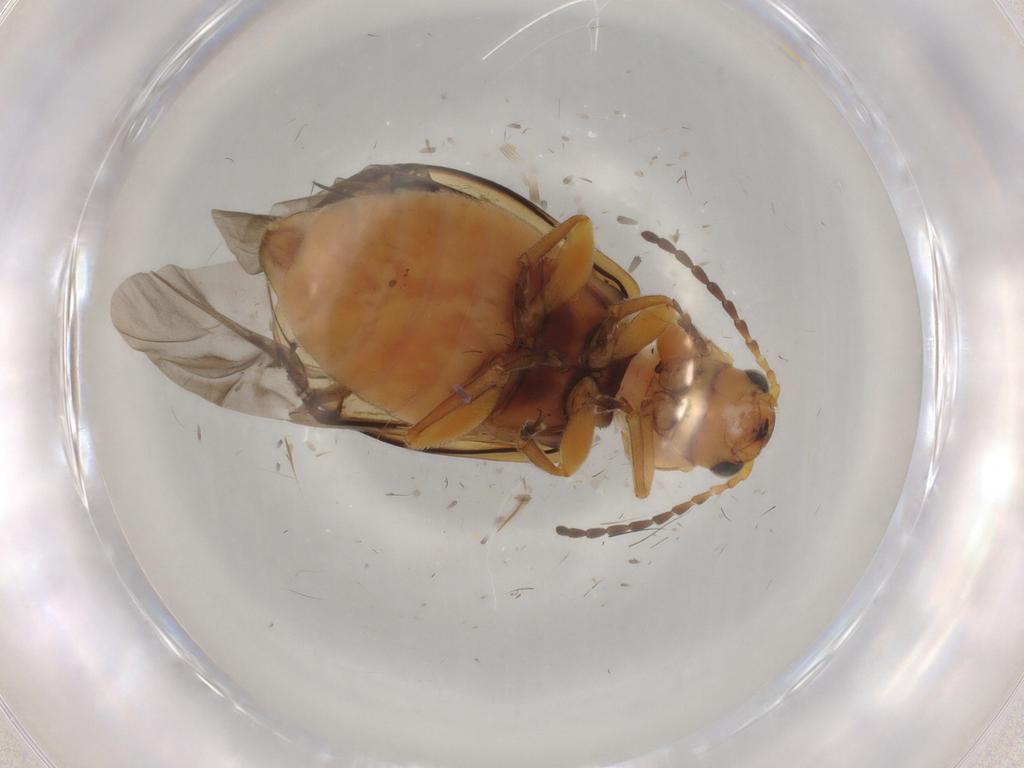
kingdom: Animalia
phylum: Arthropoda
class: Insecta
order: Coleoptera
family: Chrysomelidae
